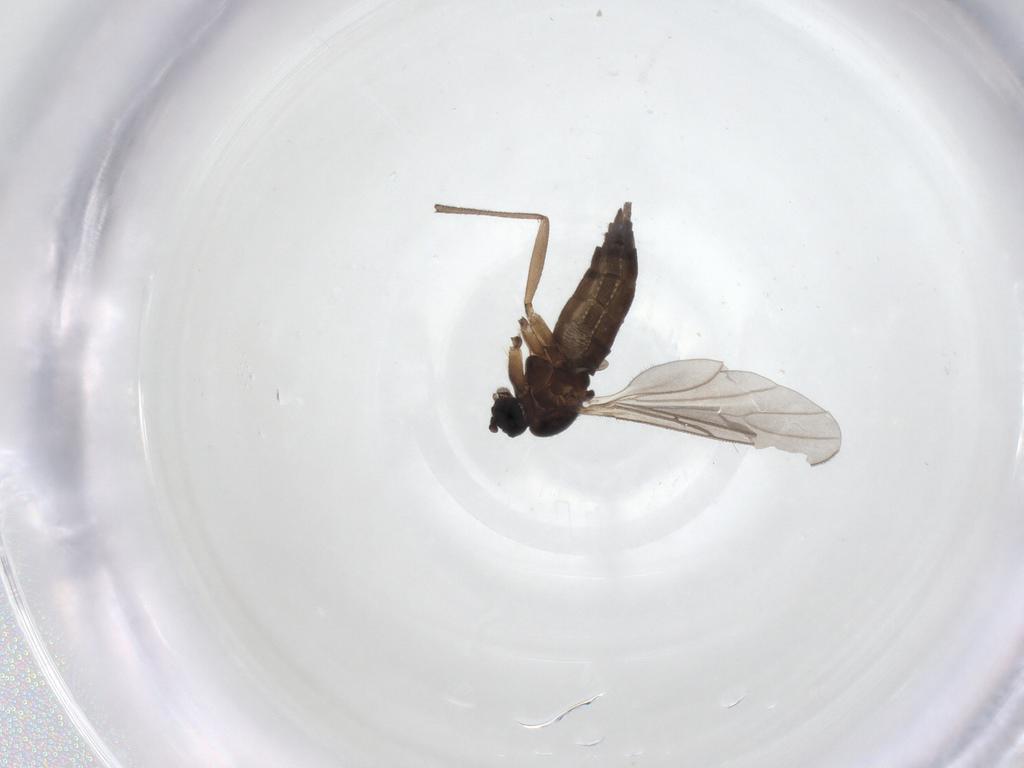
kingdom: Animalia
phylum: Arthropoda
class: Insecta
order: Diptera
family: Sciaridae
